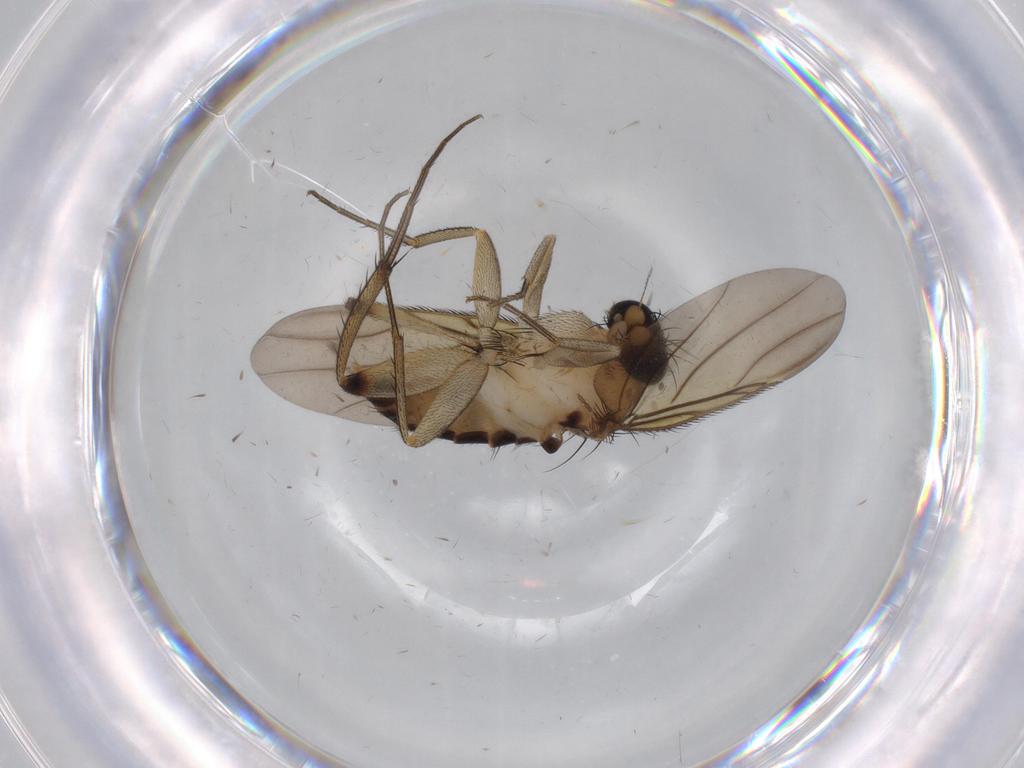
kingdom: Animalia
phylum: Arthropoda
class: Insecta
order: Diptera
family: Chironomidae
